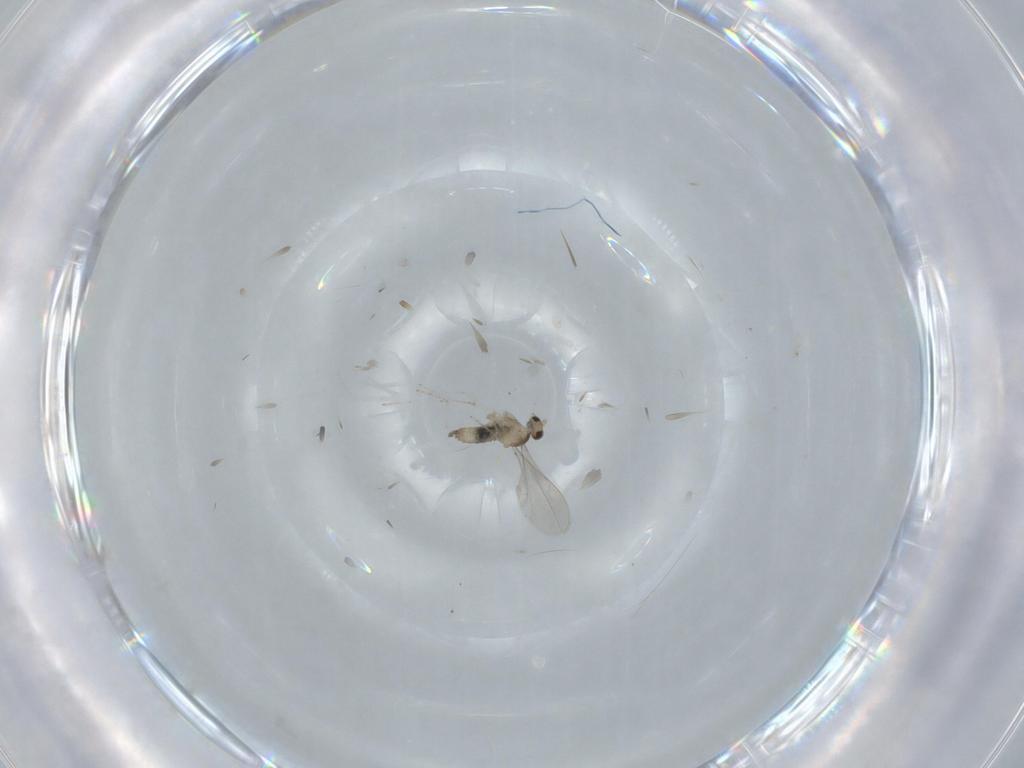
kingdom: Animalia
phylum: Arthropoda
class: Insecta
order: Diptera
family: Cecidomyiidae
